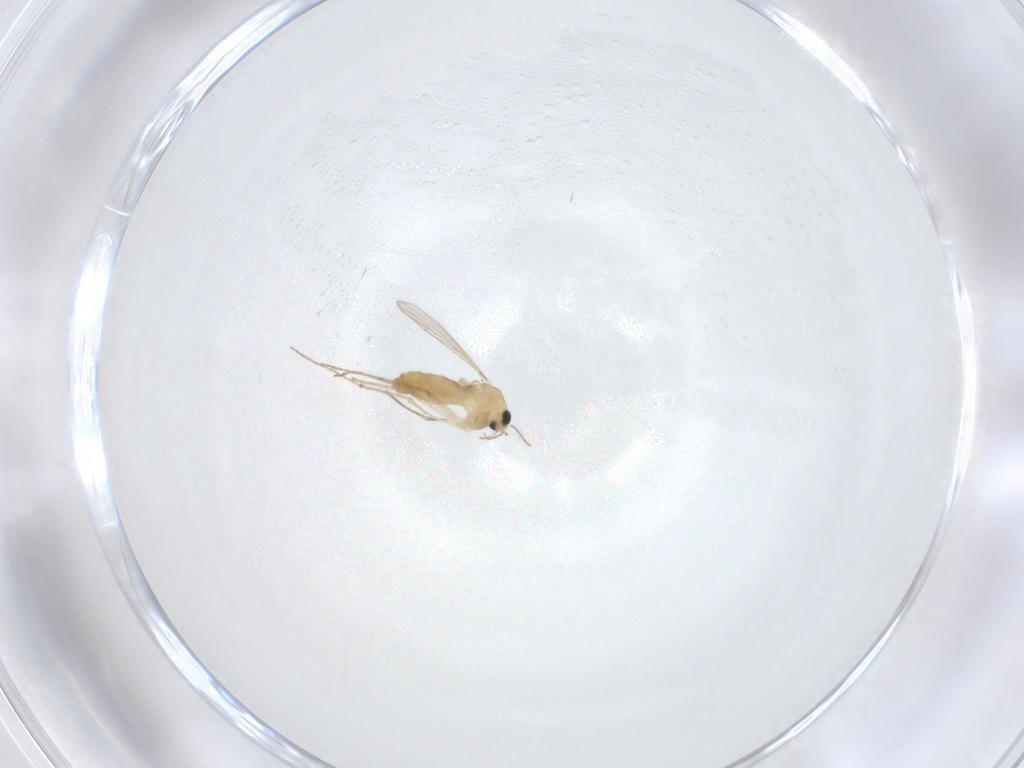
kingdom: Animalia
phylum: Arthropoda
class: Insecta
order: Diptera
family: Chironomidae
